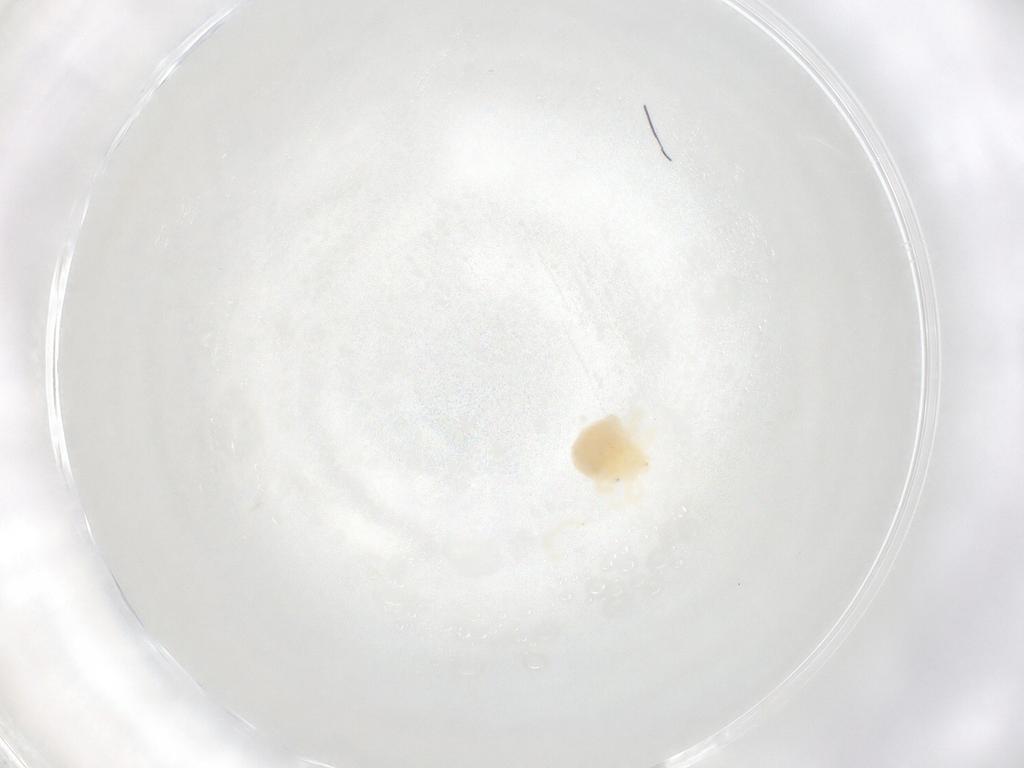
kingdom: Animalia
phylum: Arthropoda
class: Arachnida
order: Trombidiformes
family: Anystidae
